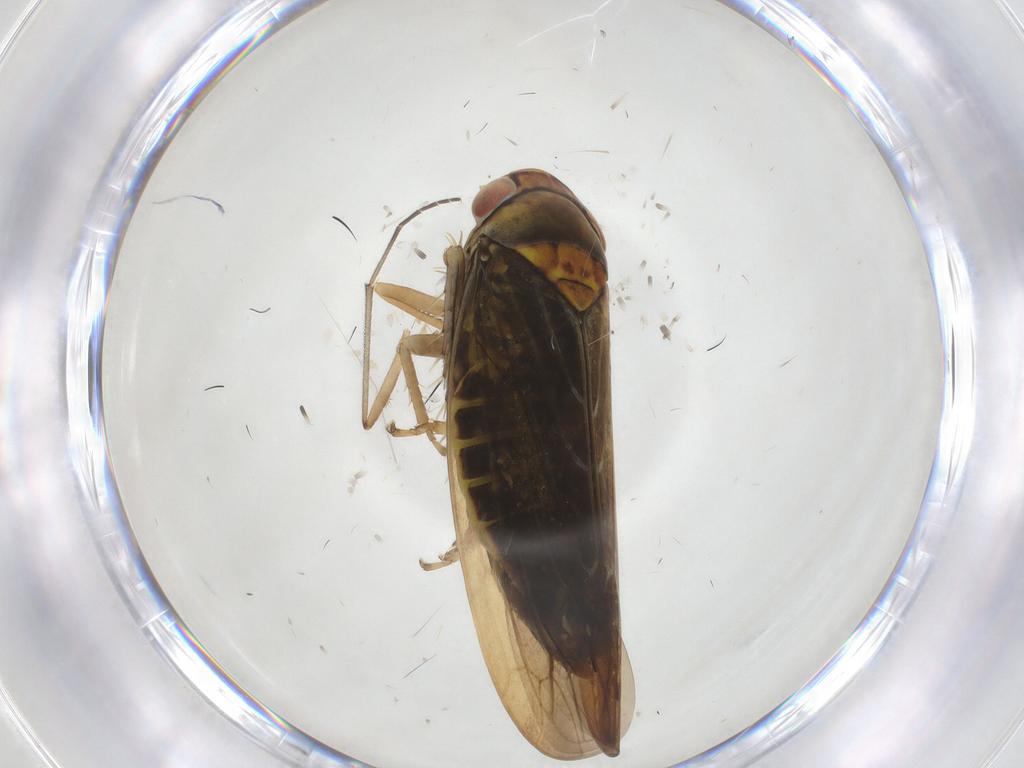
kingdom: Animalia
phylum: Arthropoda
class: Insecta
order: Hemiptera
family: Cicadellidae
